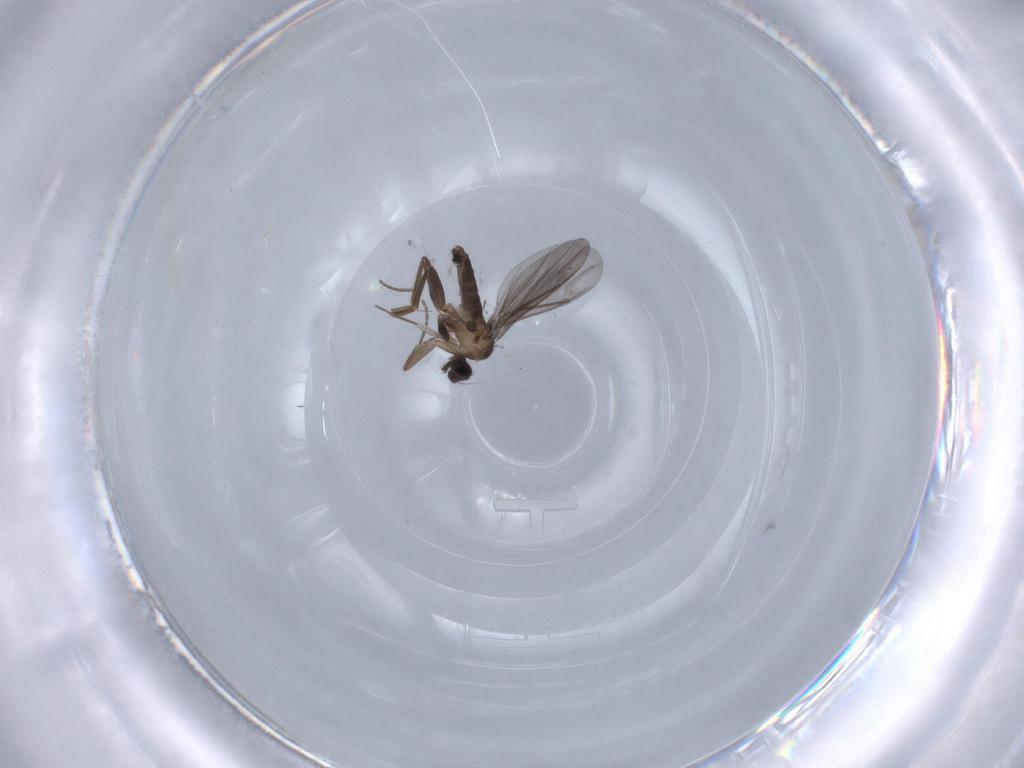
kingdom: Animalia
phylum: Arthropoda
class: Insecta
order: Diptera
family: Phoridae
